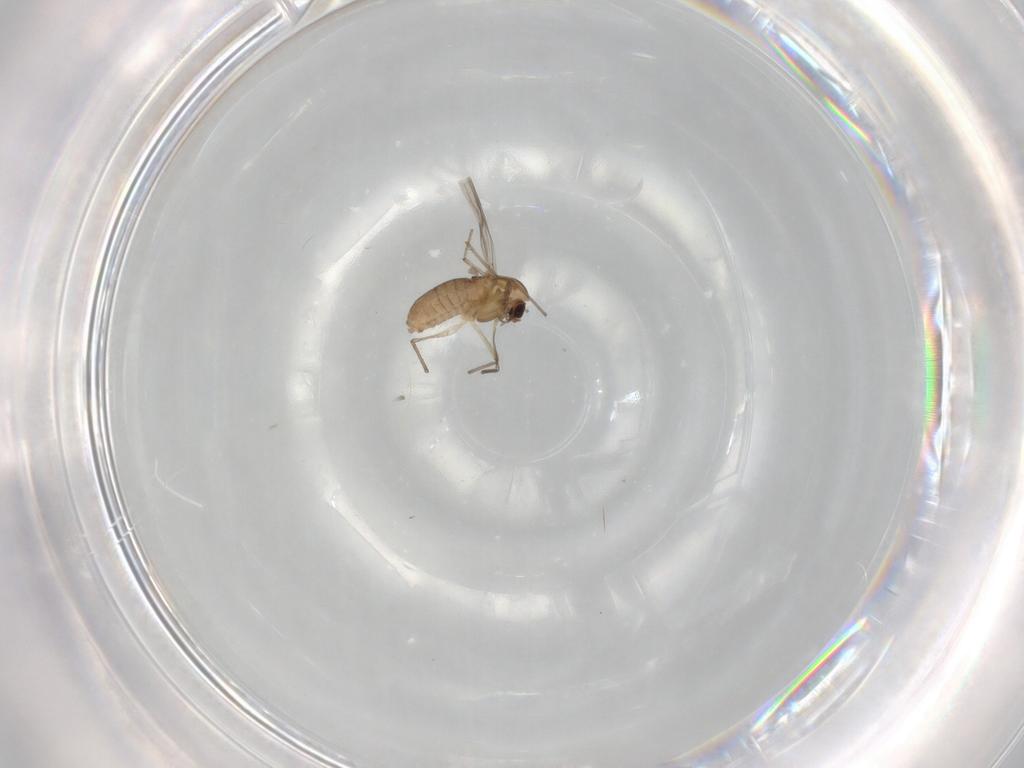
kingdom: Animalia
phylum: Arthropoda
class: Insecta
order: Diptera
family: Chironomidae
